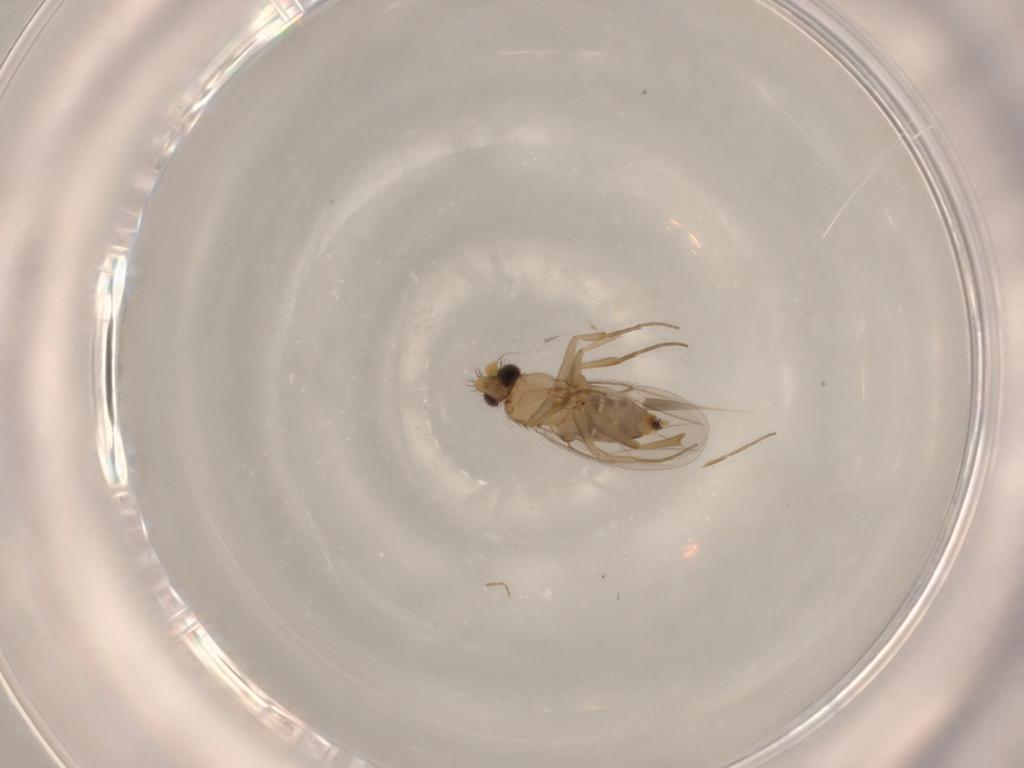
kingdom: Animalia
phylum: Arthropoda
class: Insecta
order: Diptera
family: Phoridae
